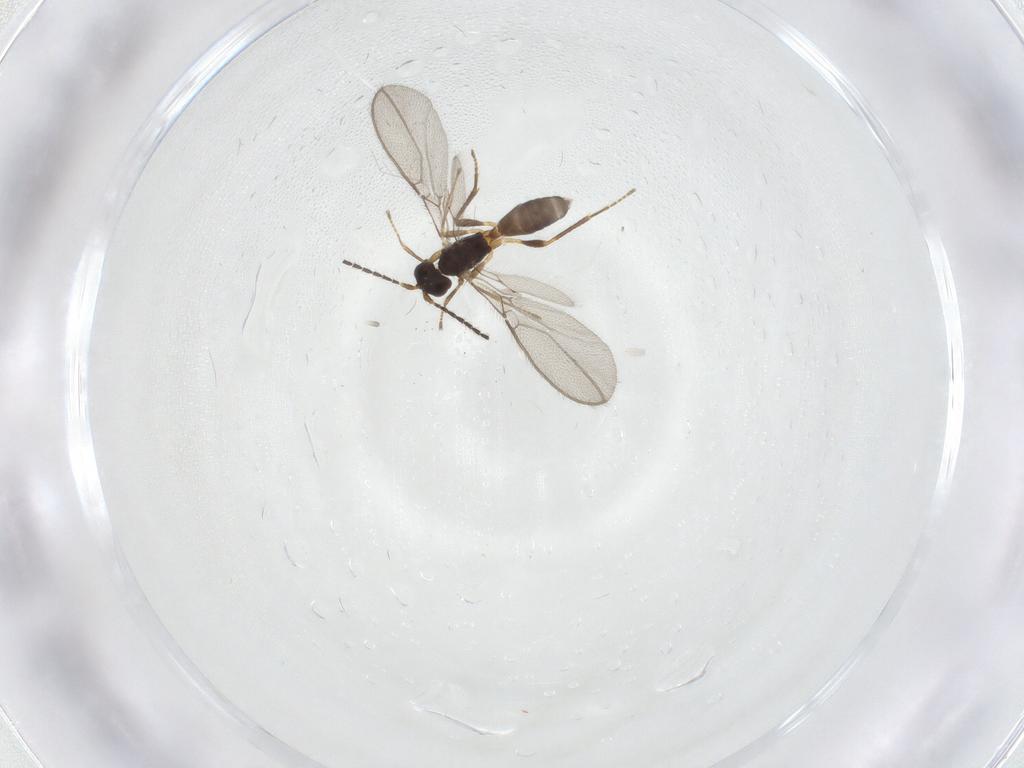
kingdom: Animalia
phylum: Arthropoda
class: Insecta
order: Hymenoptera
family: Braconidae
